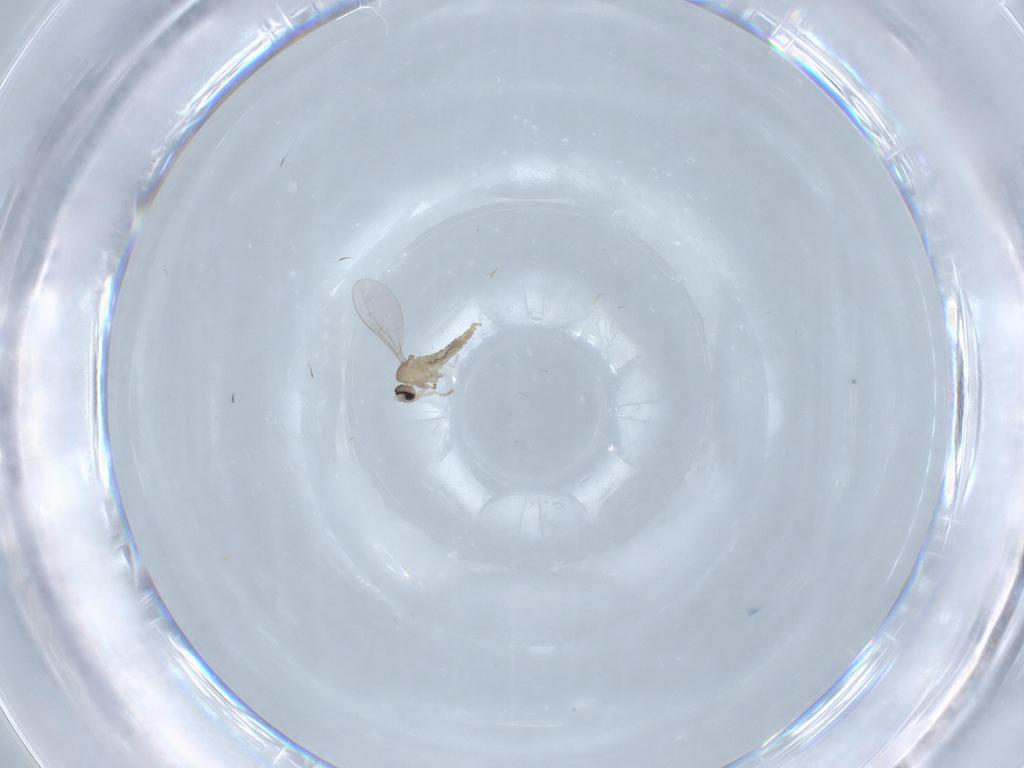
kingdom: Animalia
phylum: Arthropoda
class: Insecta
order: Diptera
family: Cecidomyiidae
